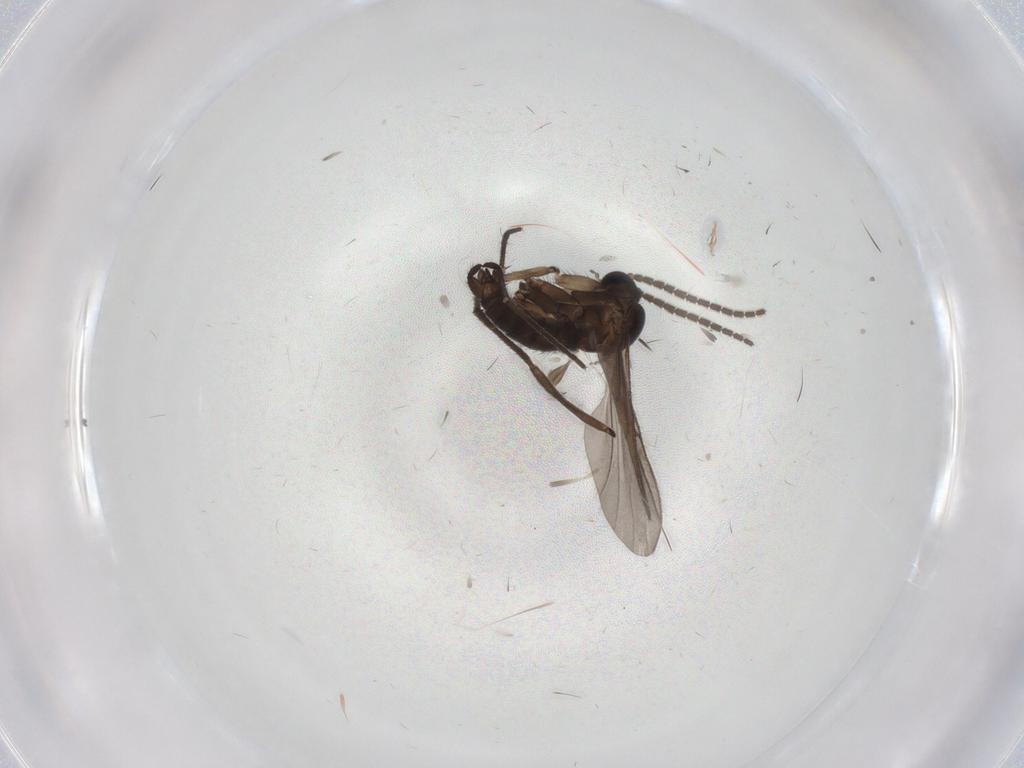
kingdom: Animalia
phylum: Arthropoda
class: Insecta
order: Diptera
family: Sciaridae
